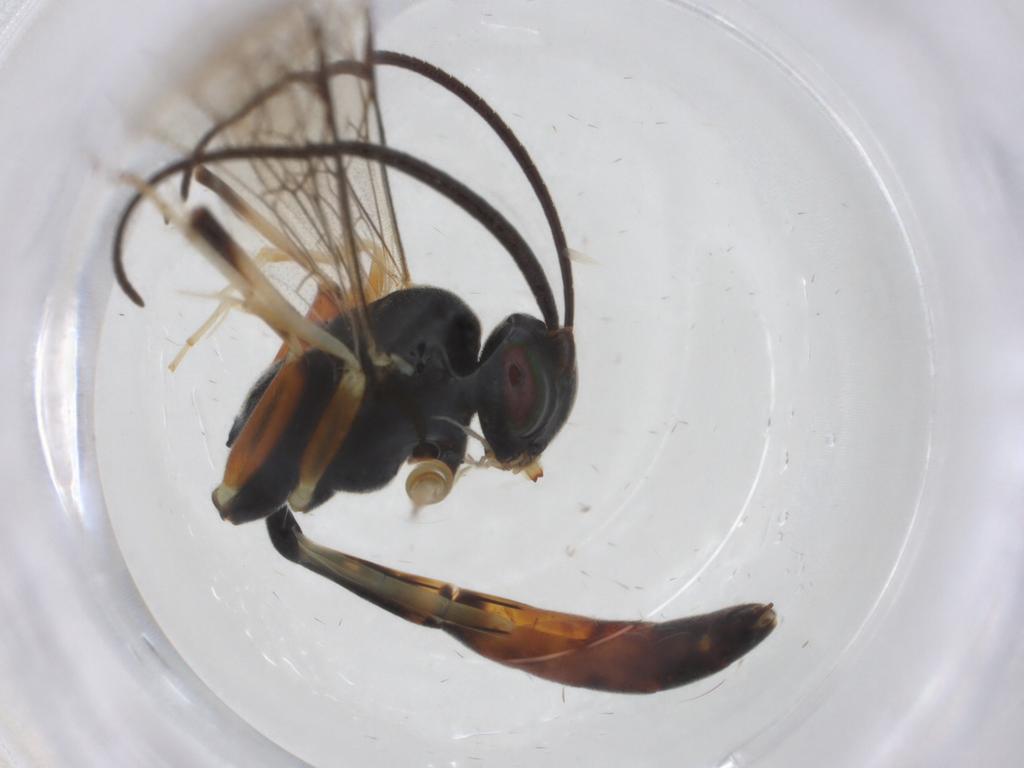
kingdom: Animalia
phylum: Arthropoda
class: Insecta
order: Hymenoptera
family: Ichneumonidae
